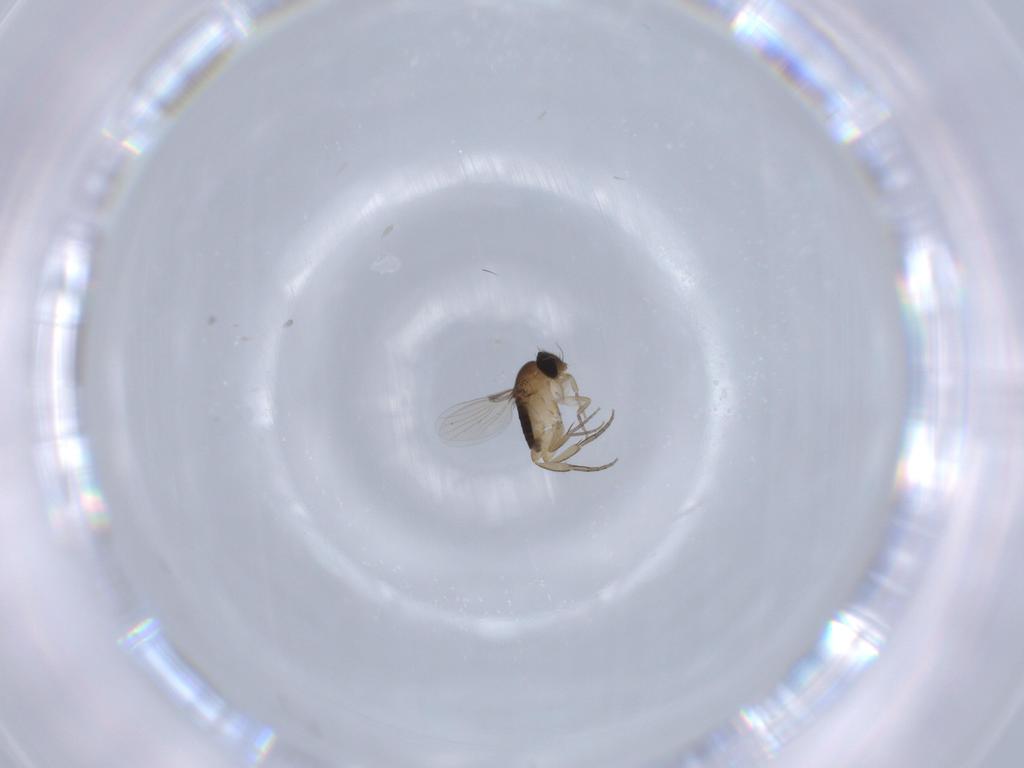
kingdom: Animalia
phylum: Arthropoda
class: Insecta
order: Diptera
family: Phoridae
